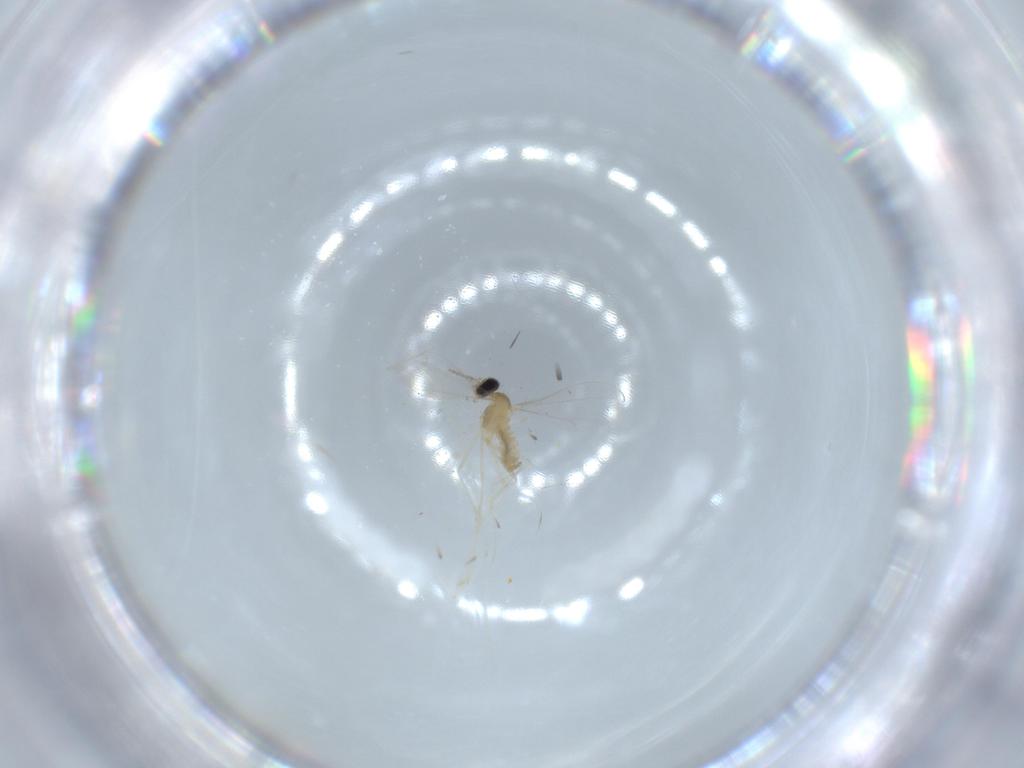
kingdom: Animalia
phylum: Arthropoda
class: Insecta
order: Diptera
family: Cecidomyiidae
